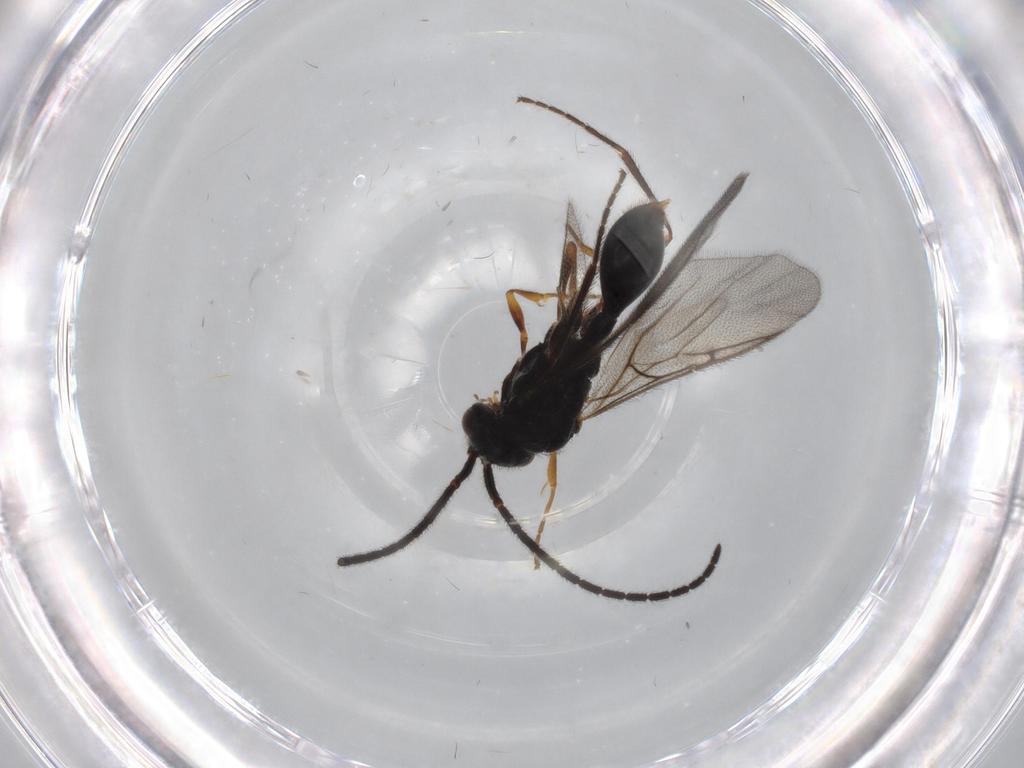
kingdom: Animalia
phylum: Arthropoda
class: Insecta
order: Hymenoptera
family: Diapriidae
